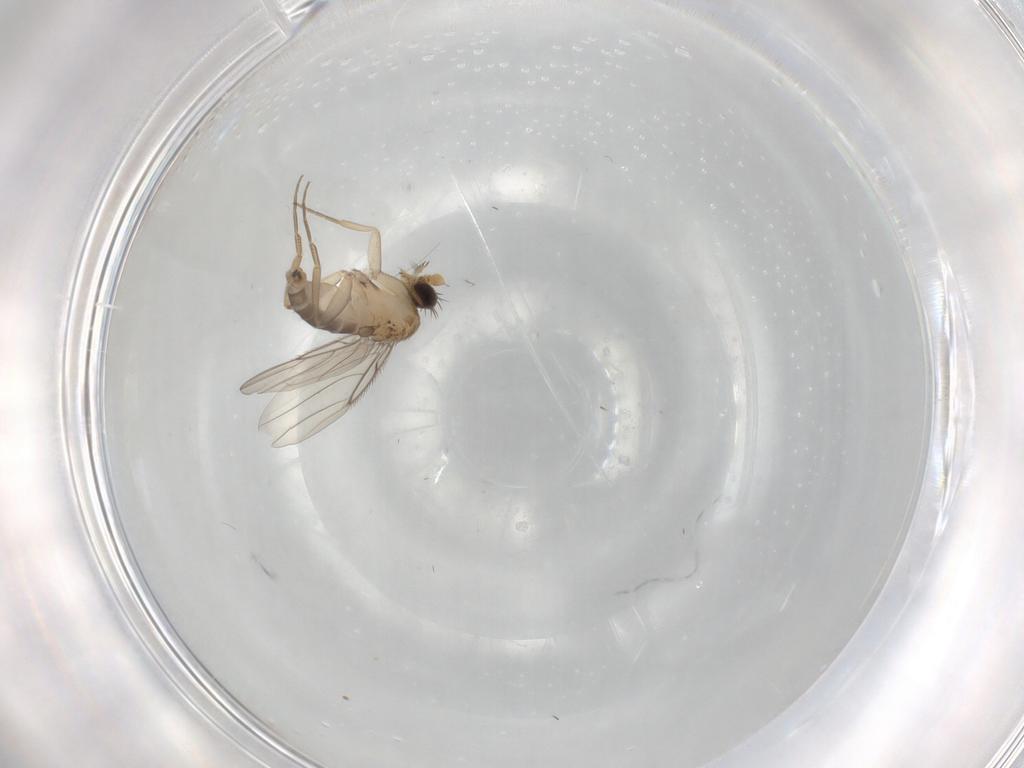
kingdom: Animalia
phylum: Arthropoda
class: Insecta
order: Diptera
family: Phoridae
